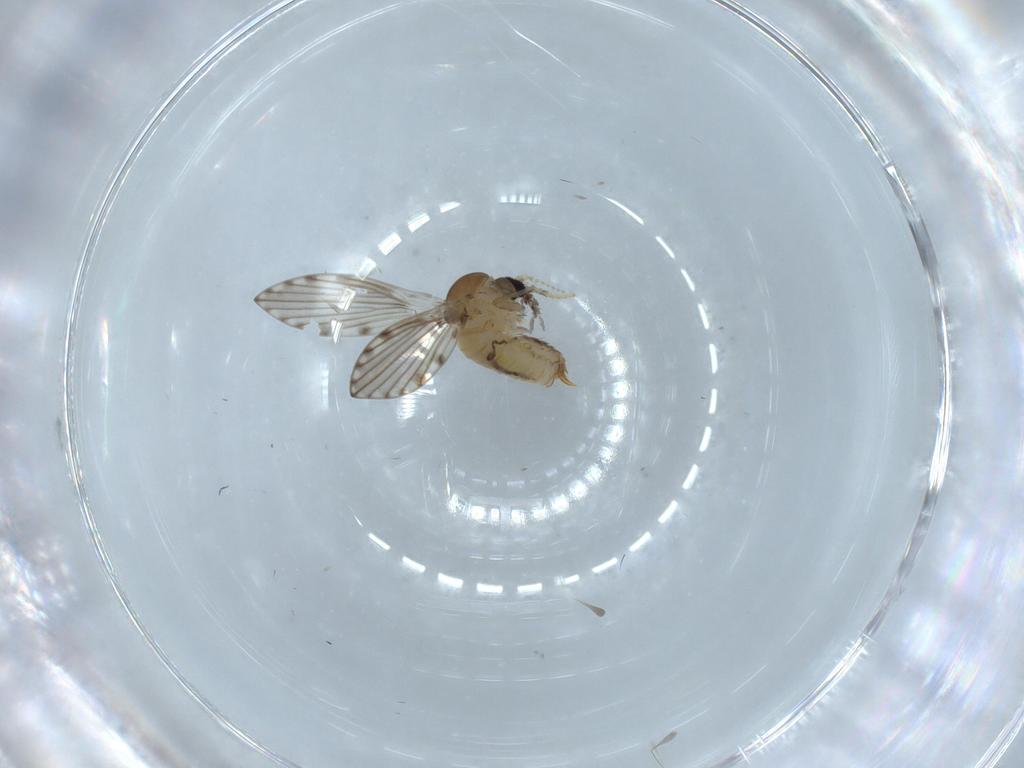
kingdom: Animalia
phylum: Arthropoda
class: Insecta
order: Diptera
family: Psychodidae
